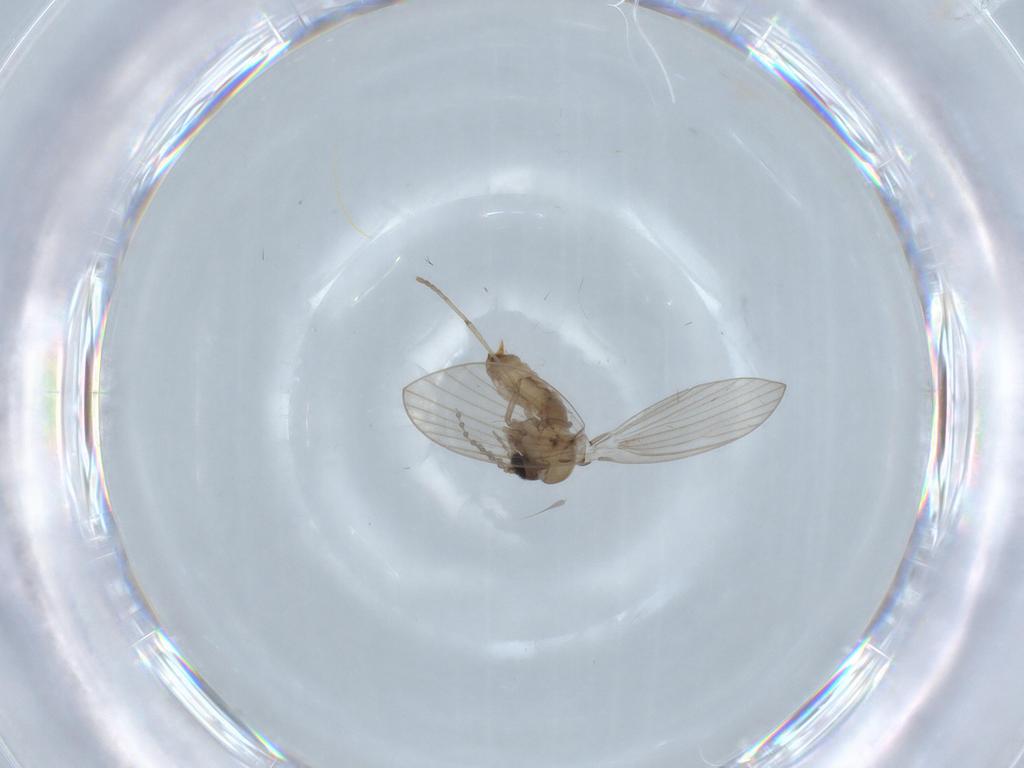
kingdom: Animalia
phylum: Arthropoda
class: Insecta
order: Diptera
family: Psychodidae
